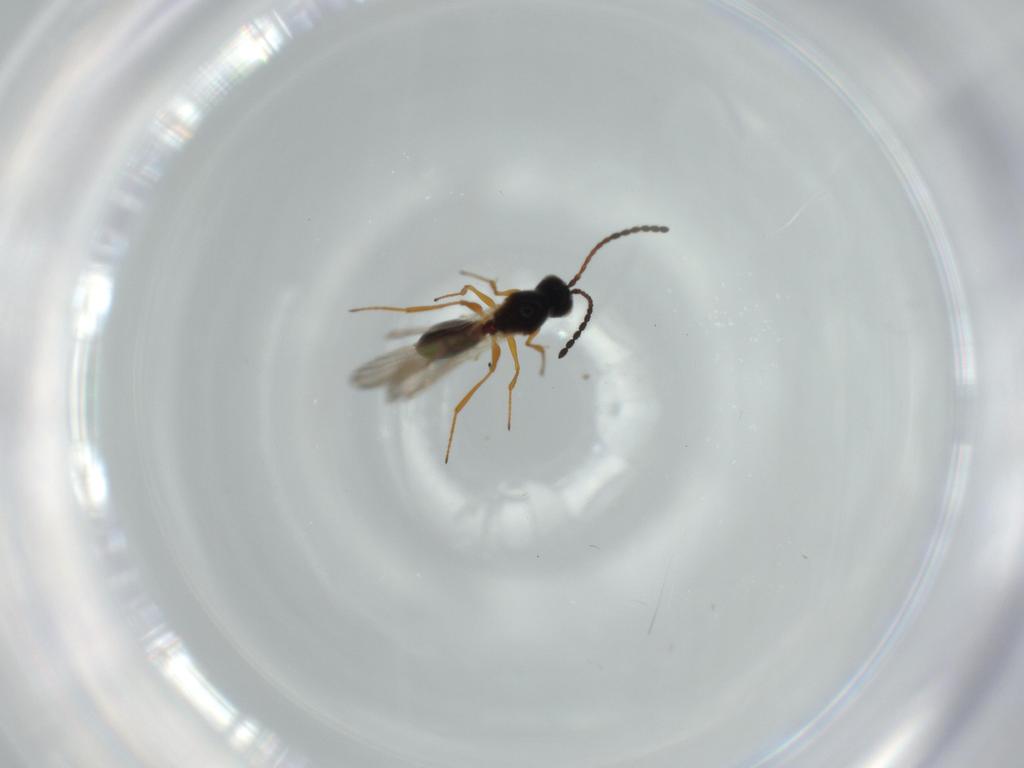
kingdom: Animalia
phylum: Arthropoda
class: Insecta
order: Hymenoptera
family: Figitidae
